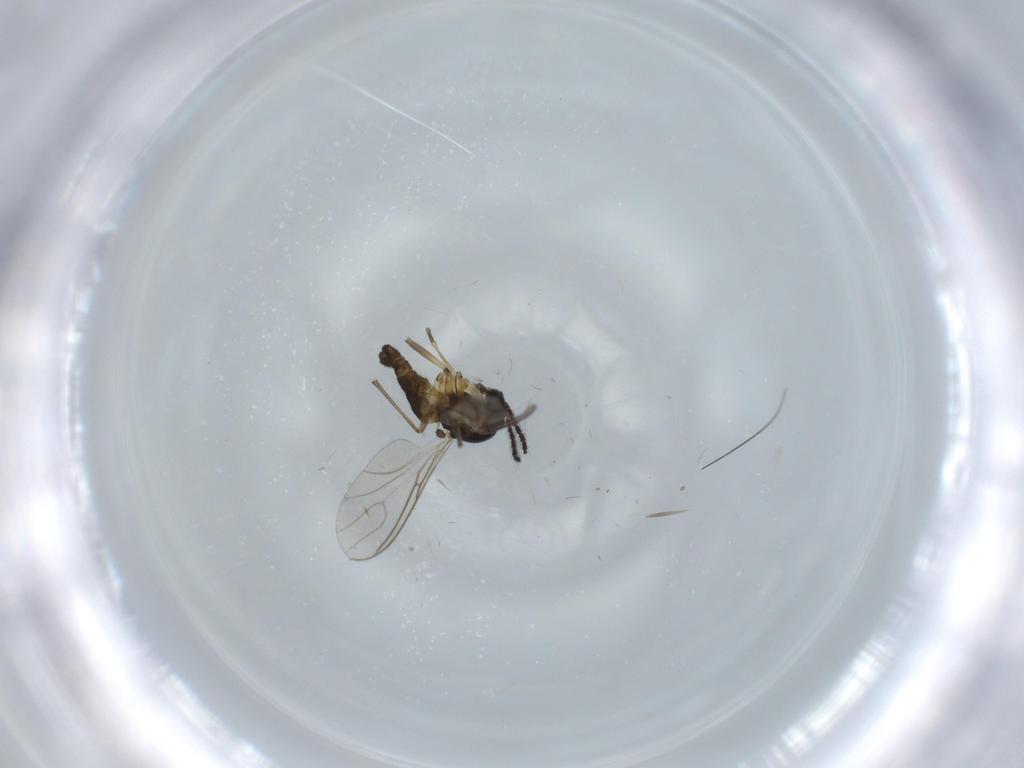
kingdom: Animalia
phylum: Arthropoda
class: Insecta
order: Diptera
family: Sciaridae
